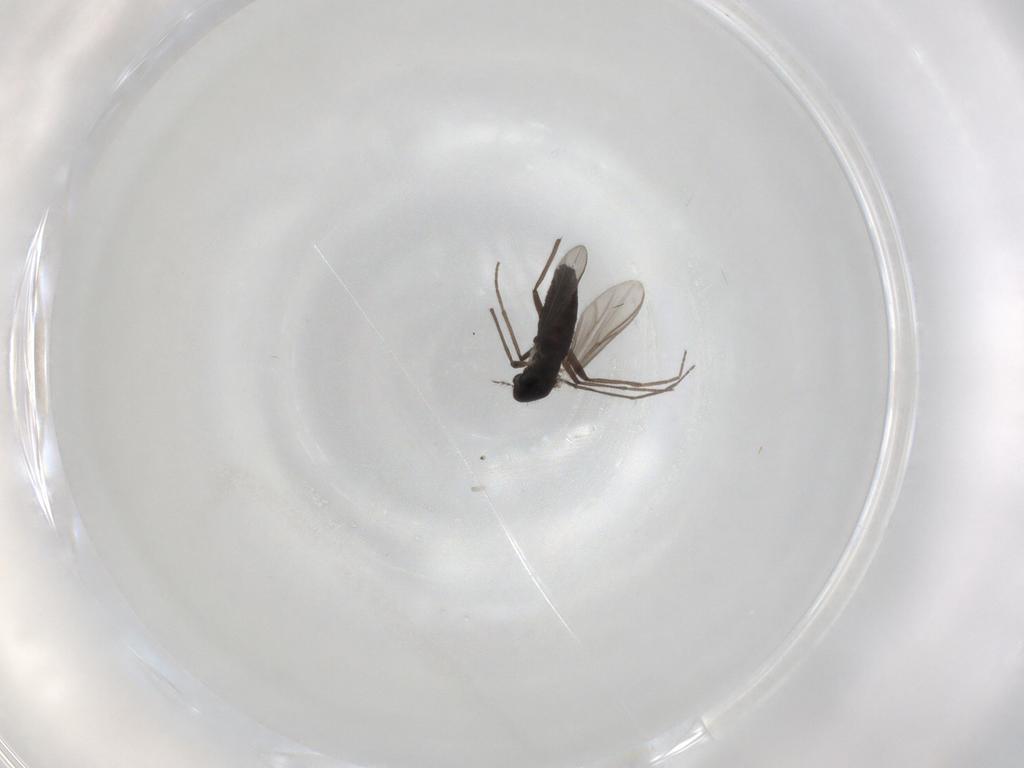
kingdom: Animalia
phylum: Arthropoda
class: Insecta
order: Diptera
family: Chironomidae
